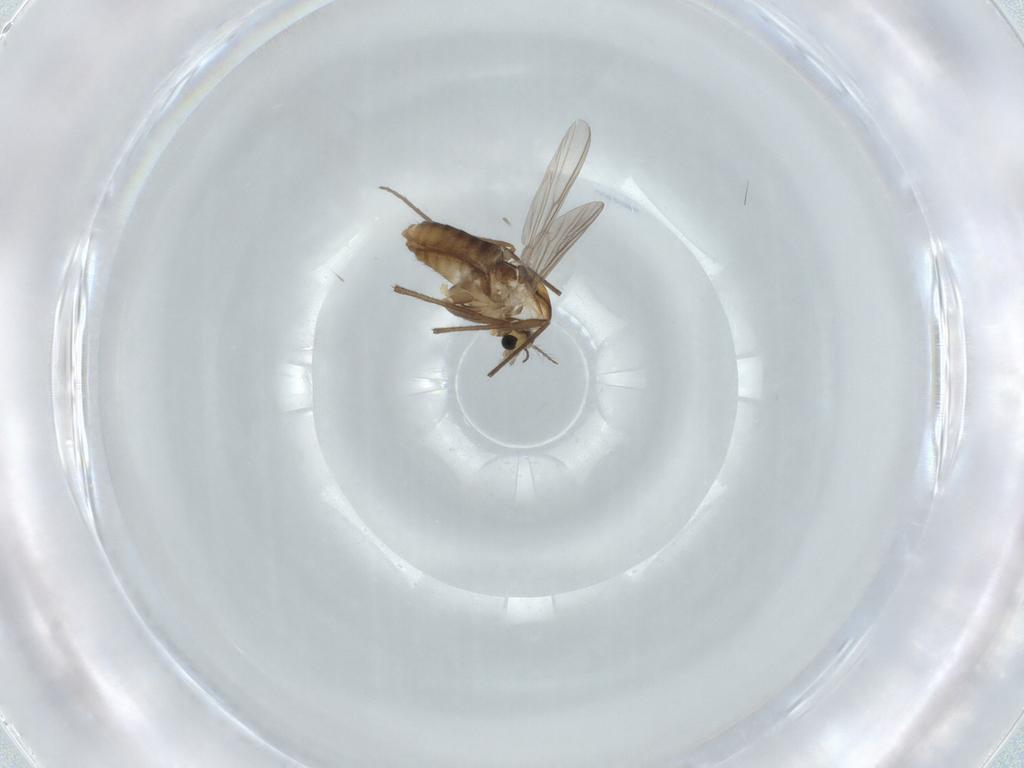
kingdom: Animalia
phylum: Arthropoda
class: Insecta
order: Diptera
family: Chironomidae
